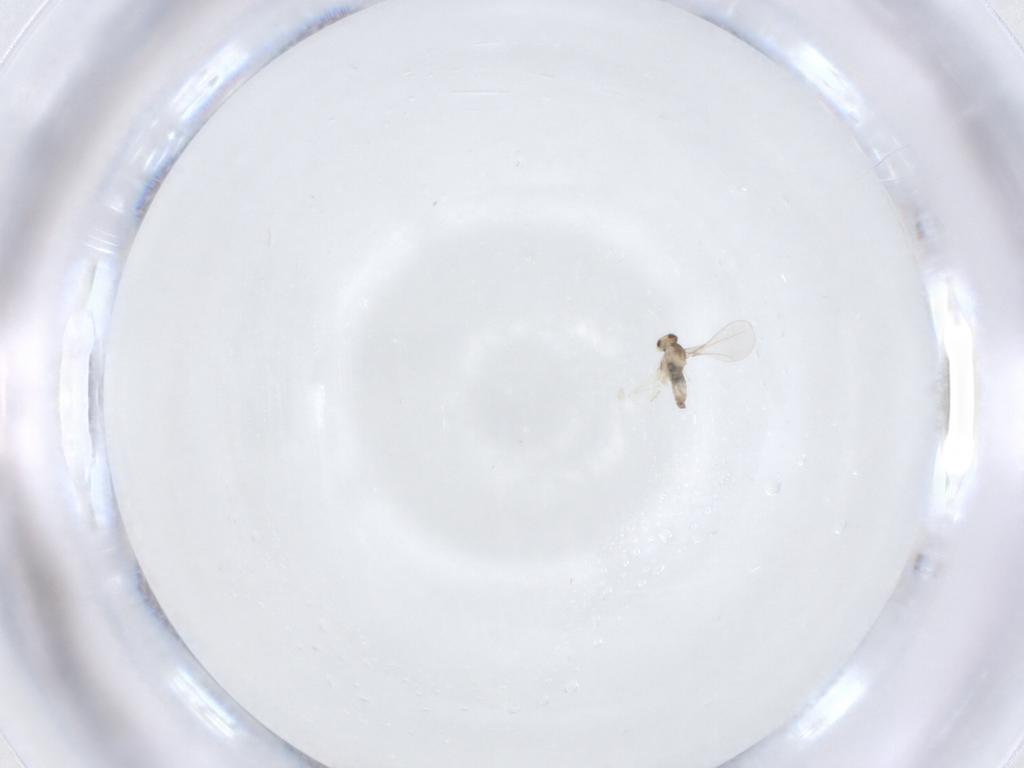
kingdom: Animalia
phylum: Arthropoda
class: Insecta
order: Diptera
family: Cecidomyiidae
